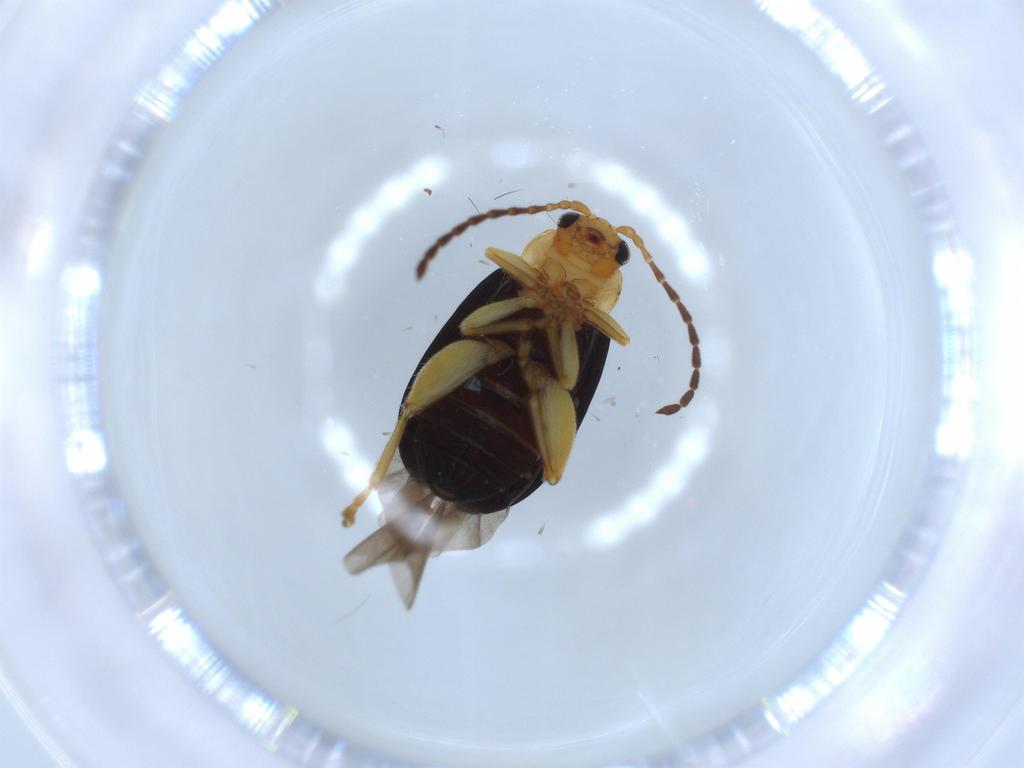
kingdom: Animalia
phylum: Arthropoda
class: Insecta
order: Coleoptera
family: Chrysomelidae
